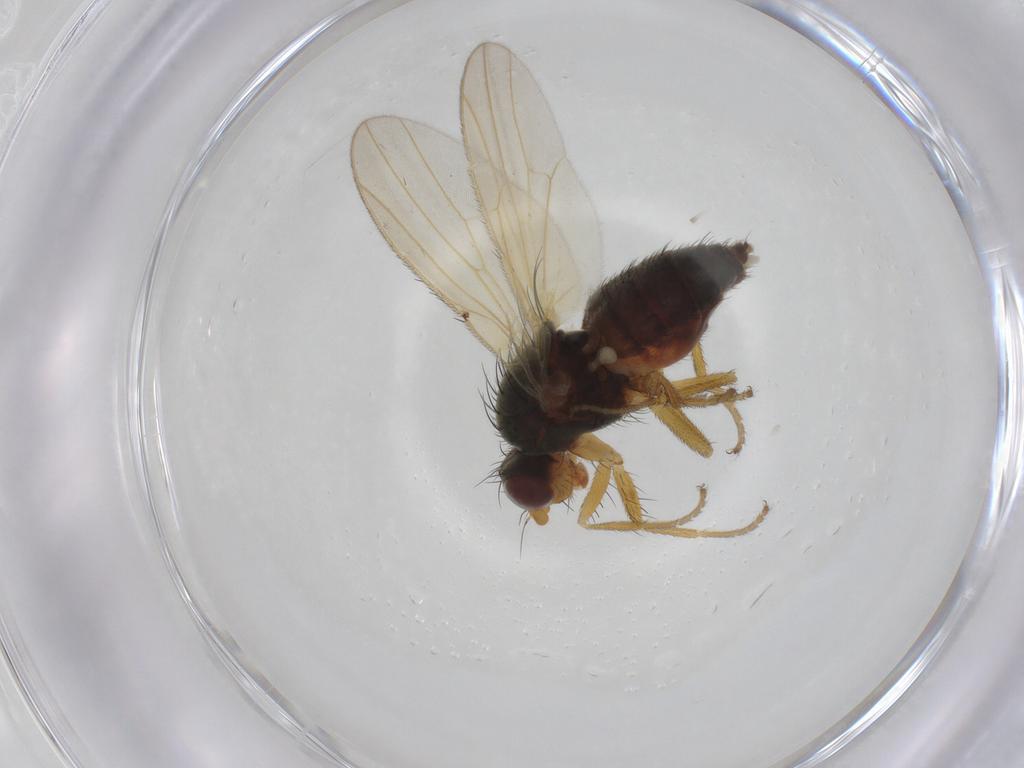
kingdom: Animalia
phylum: Arthropoda
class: Insecta
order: Diptera
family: Heleomyzidae
